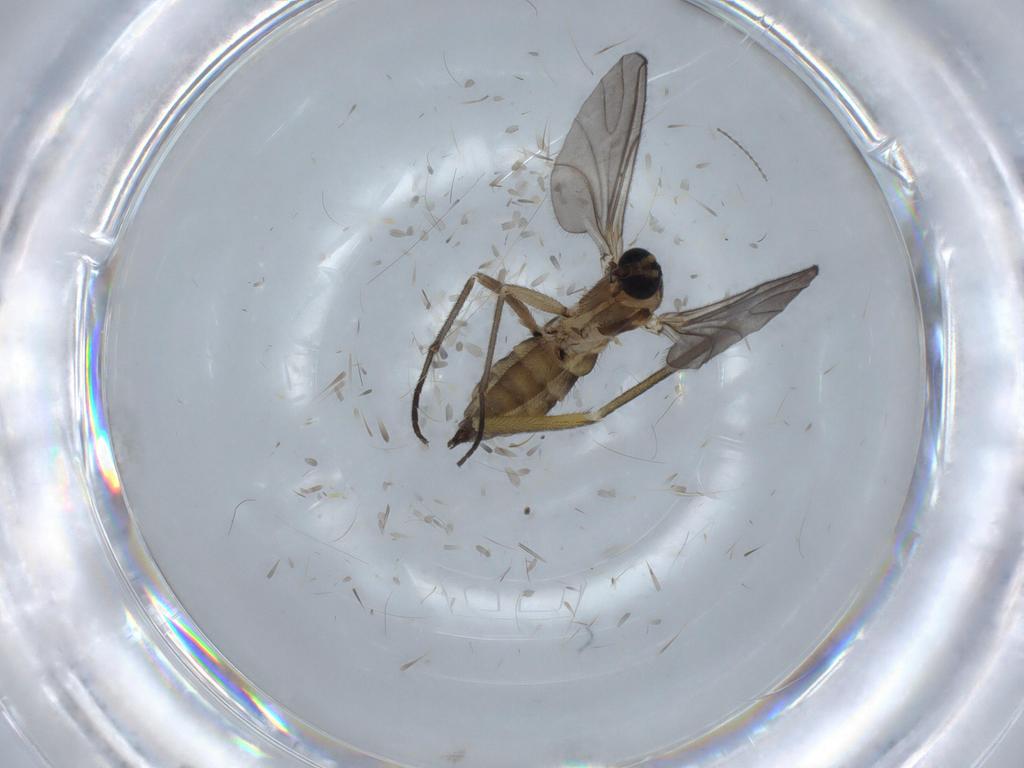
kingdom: Animalia
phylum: Arthropoda
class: Insecta
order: Diptera
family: Sciaridae
